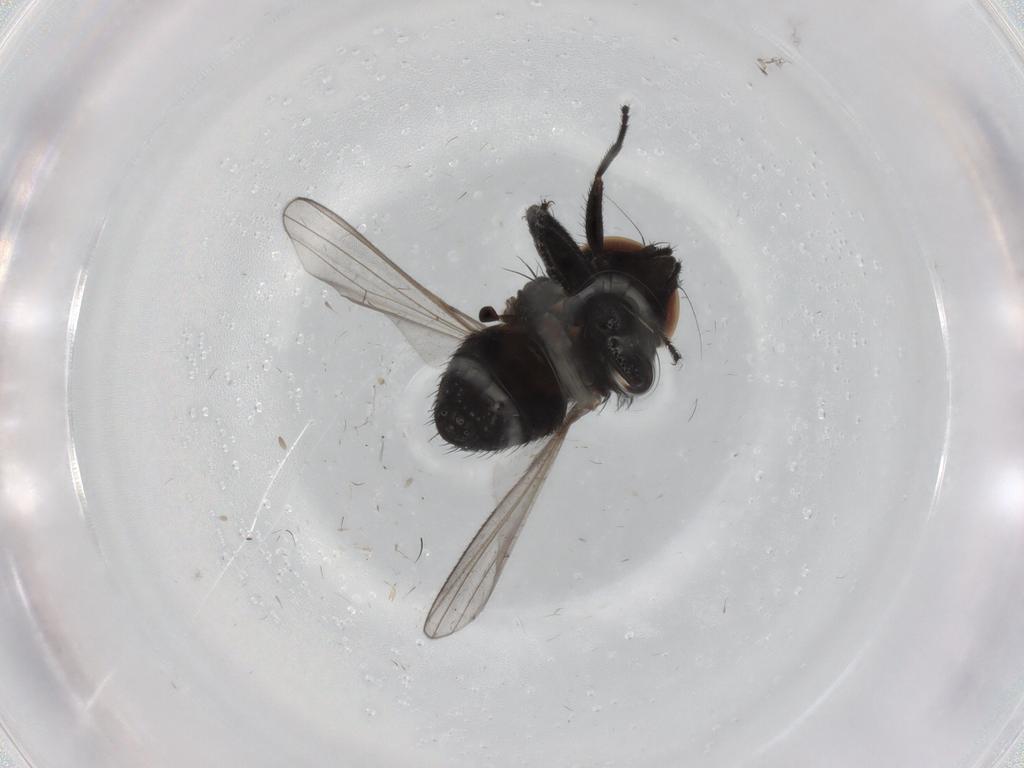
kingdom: Animalia
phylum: Arthropoda
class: Insecta
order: Diptera
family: Milichiidae
